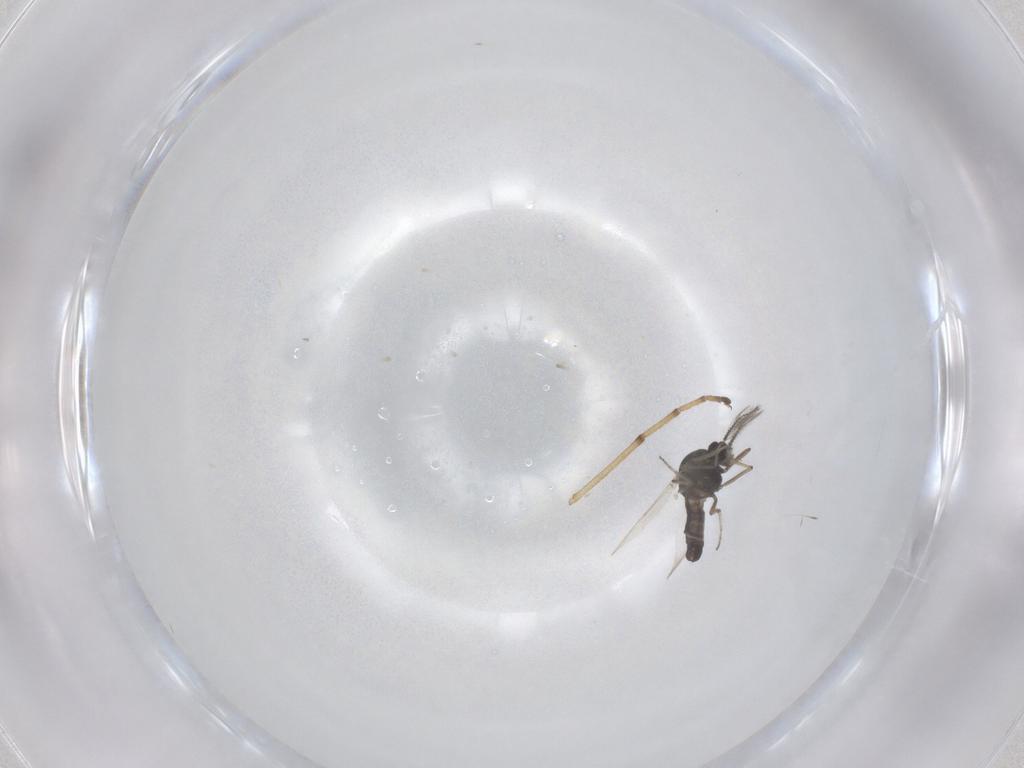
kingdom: Animalia
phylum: Arthropoda
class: Insecta
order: Diptera
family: Ceratopogonidae
